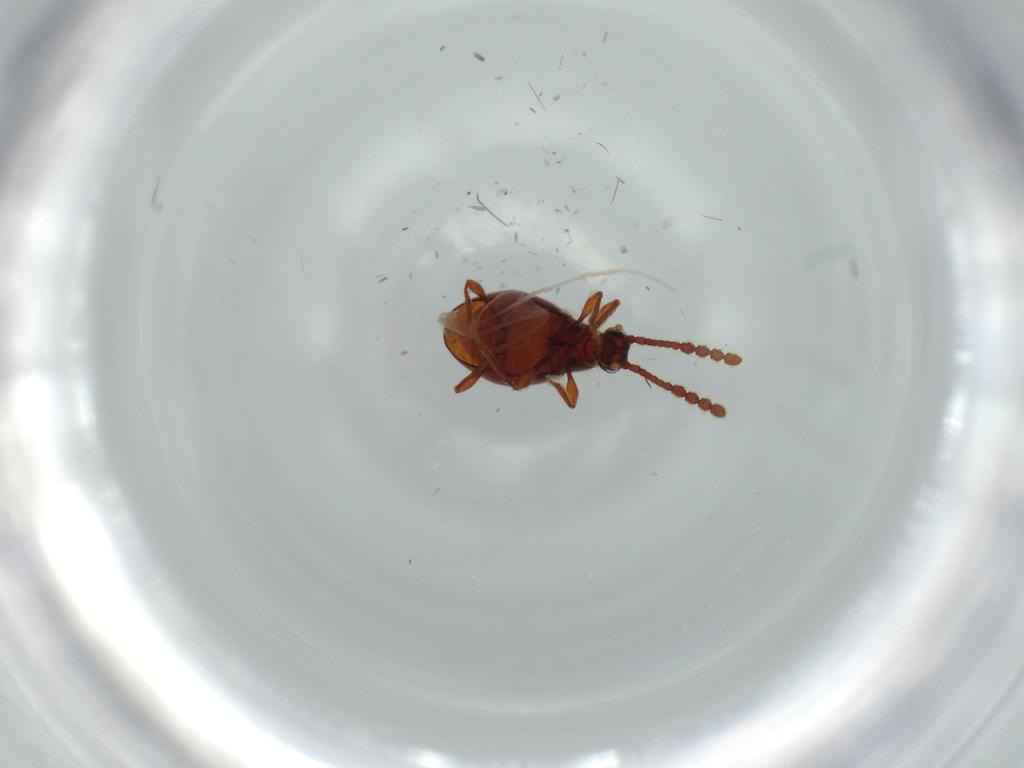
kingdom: Animalia
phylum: Arthropoda
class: Insecta
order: Coleoptera
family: Staphylinidae
